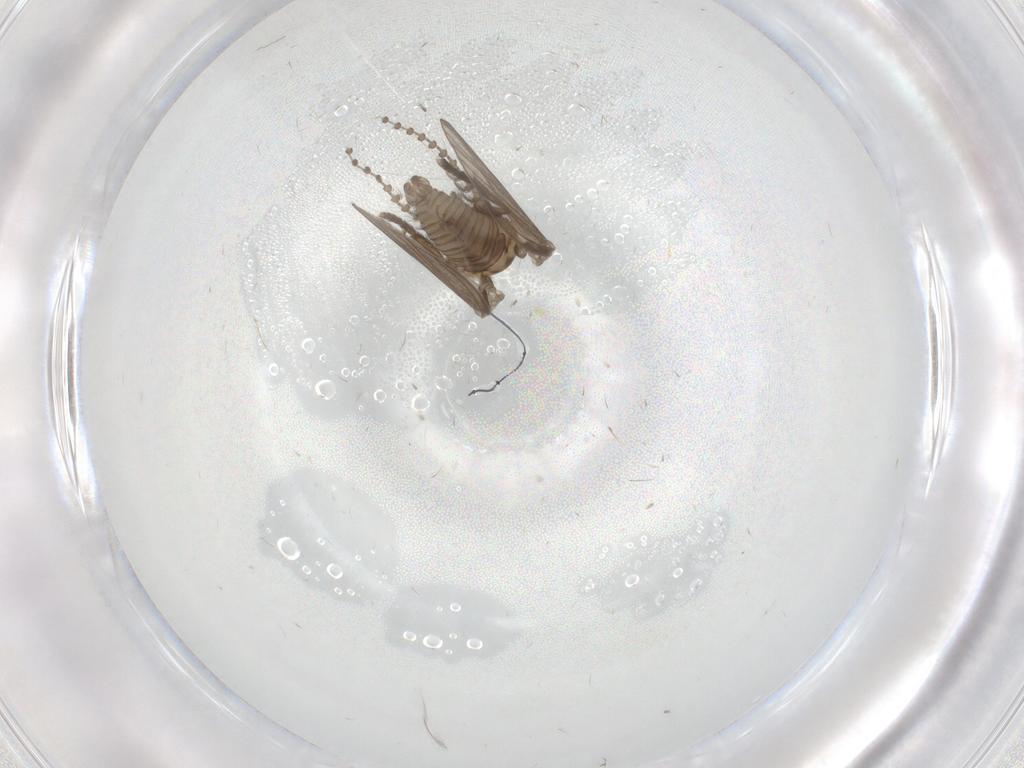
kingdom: Animalia
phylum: Arthropoda
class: Insecta
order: Diptera
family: Psychodidae
